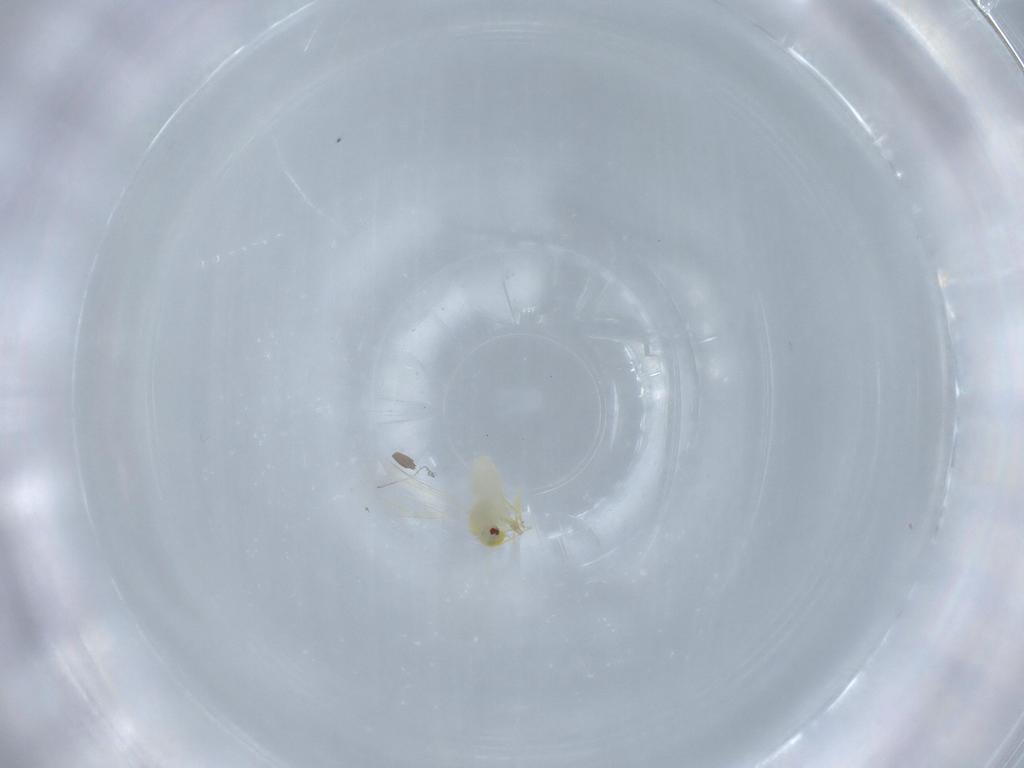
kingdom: Animalia
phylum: Arthropoda
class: Insecta
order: Hemiptera
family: Aleyrodidae
